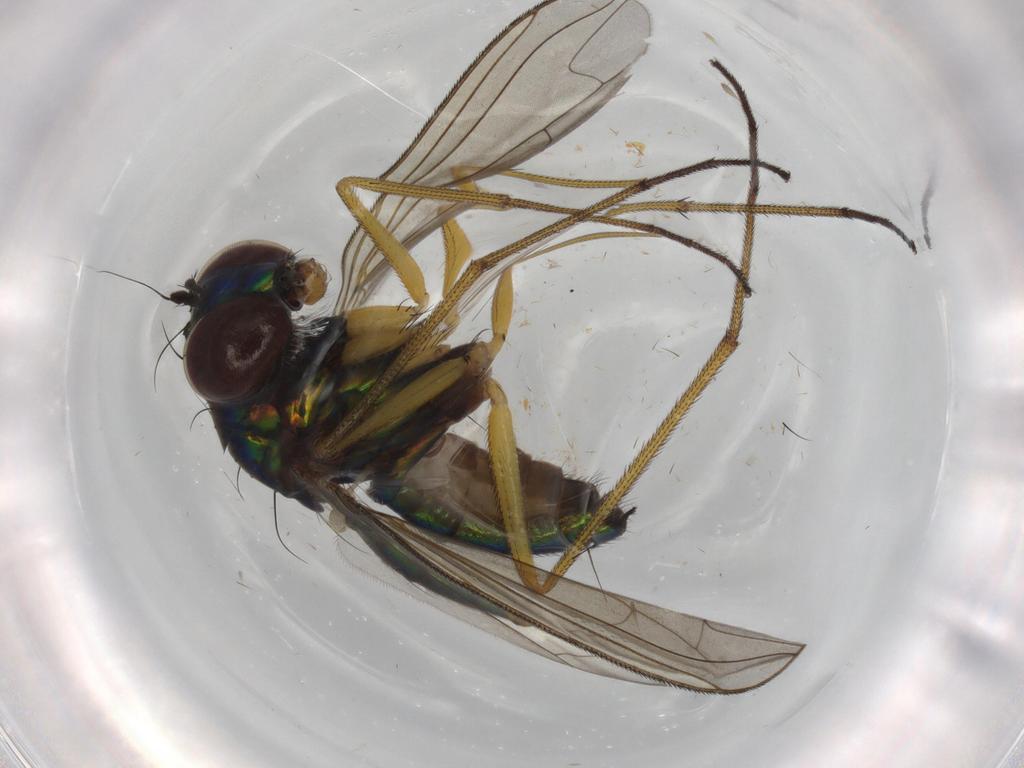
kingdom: Animalia
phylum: Arthropoda
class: Insecta
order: Diptera
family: Dolichopodidae
